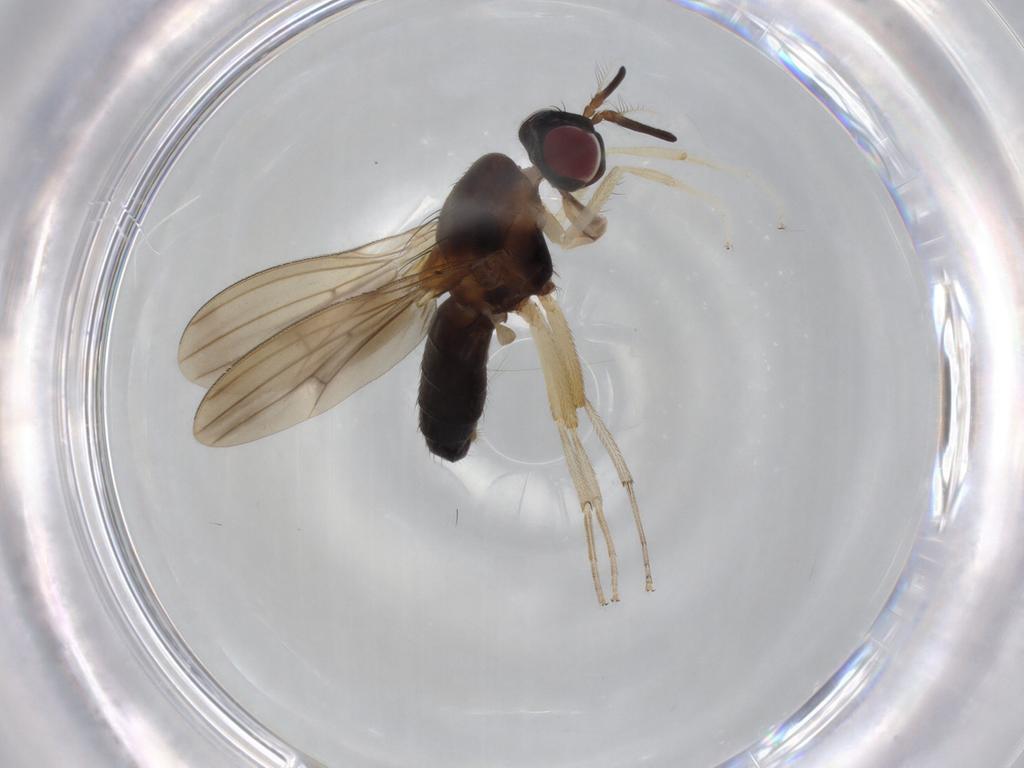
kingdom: Animalia
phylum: Arthropoda
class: Insecta
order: Diptera
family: Lauxaniidae
